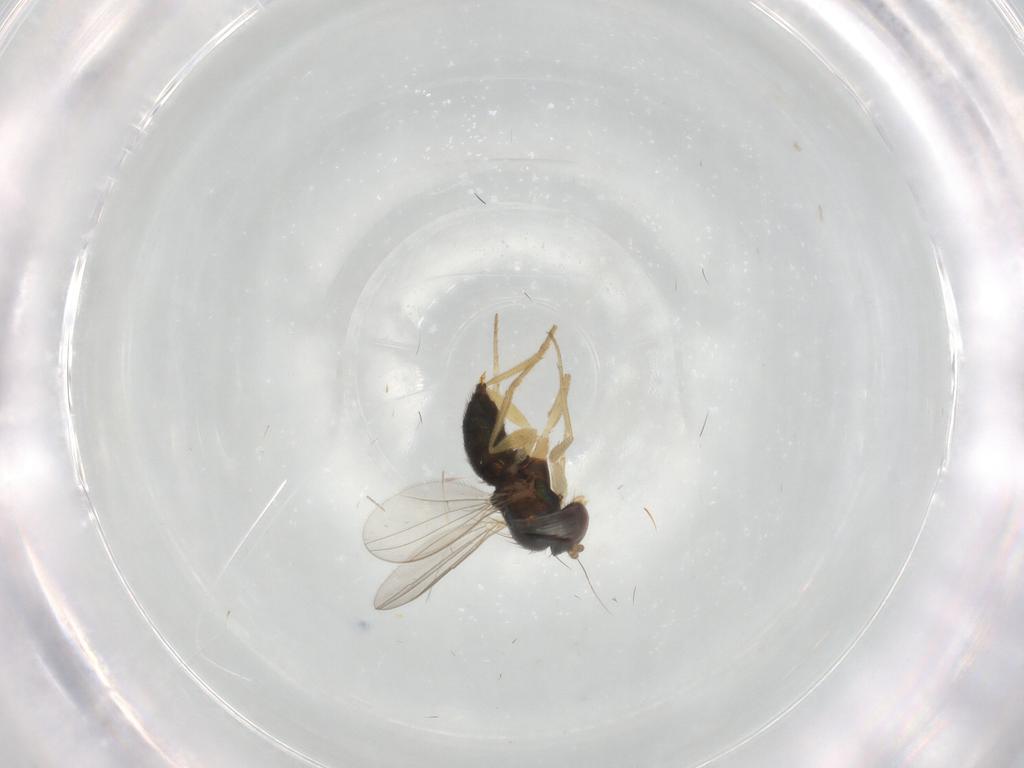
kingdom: Animalia
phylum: Arthropoda
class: Insecta
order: Diptera
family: Dolichopodidae
